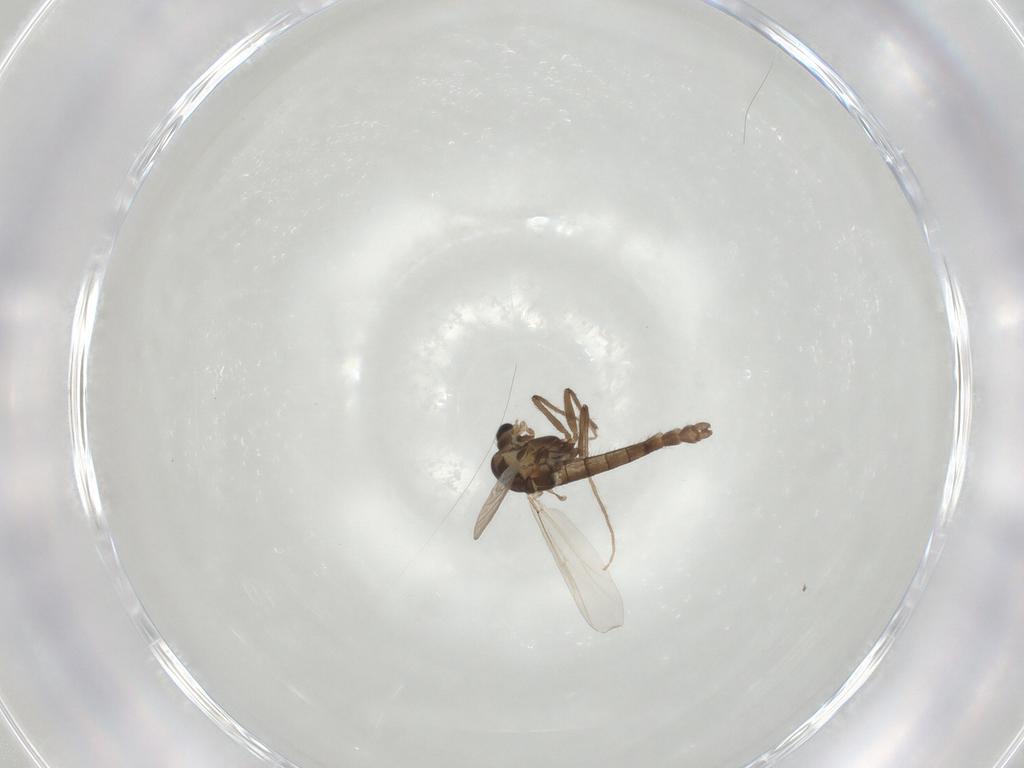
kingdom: Animalia
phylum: Arthropoda
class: Insecta
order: Diptera
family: Chironomidae
